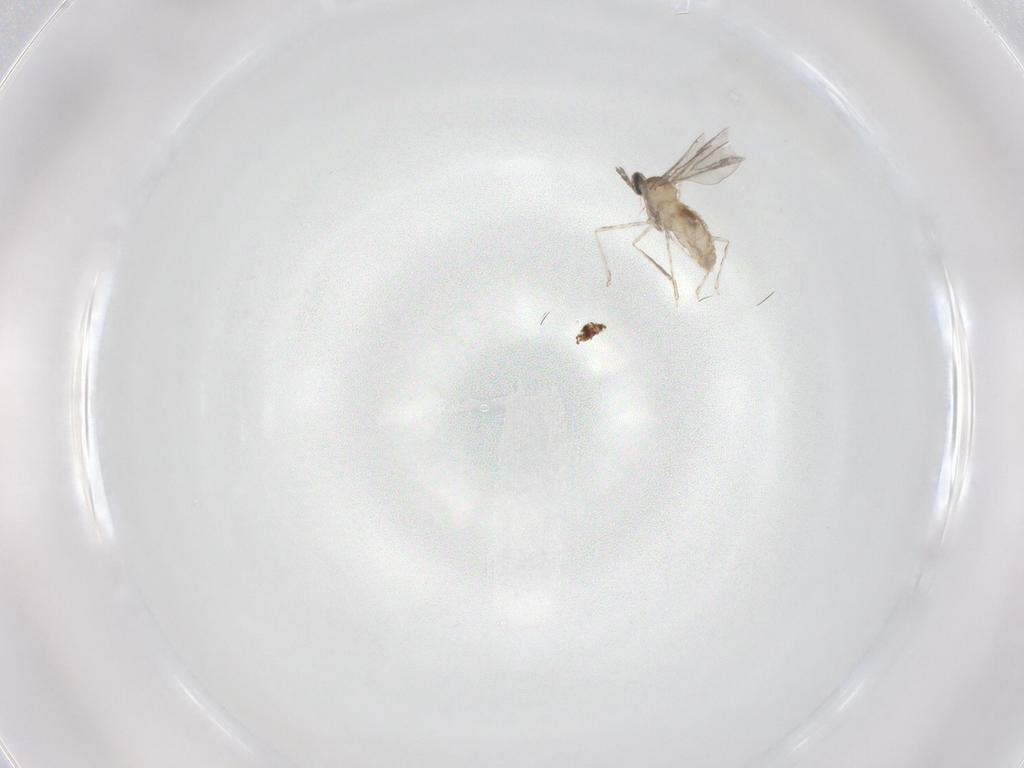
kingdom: Animalia
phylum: Arthropoda
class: Insecta
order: Diptera
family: Cecidomyiidae
